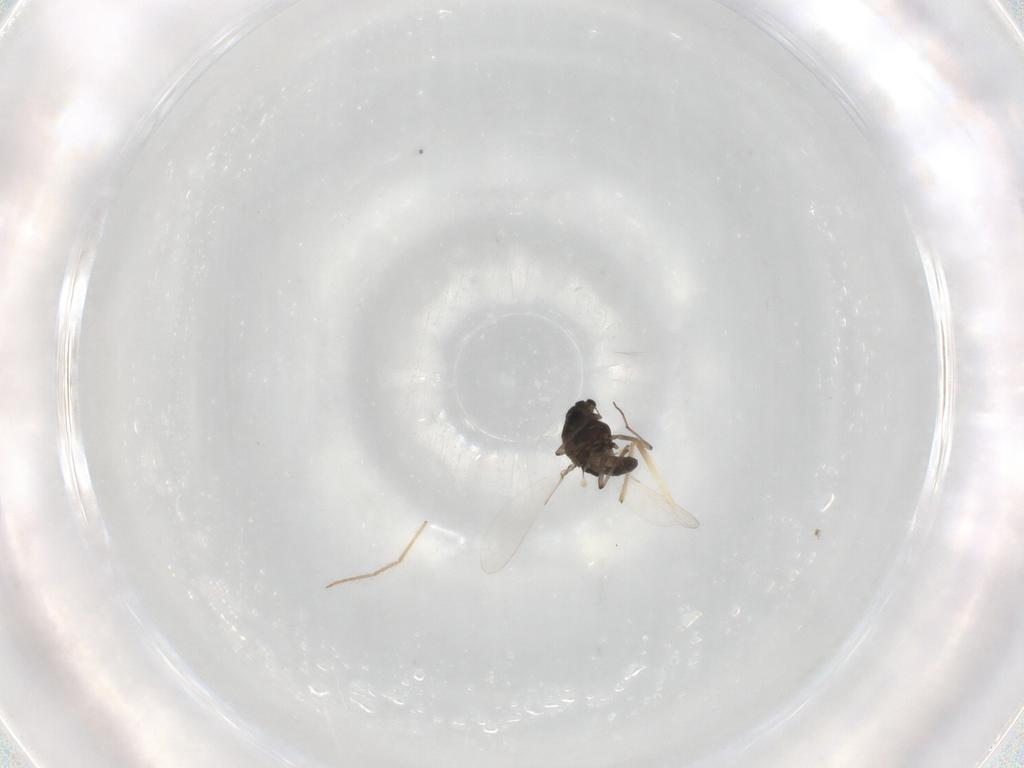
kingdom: Animalia
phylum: Arthropoda
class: Insecta
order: Diptera
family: Chironomidae
